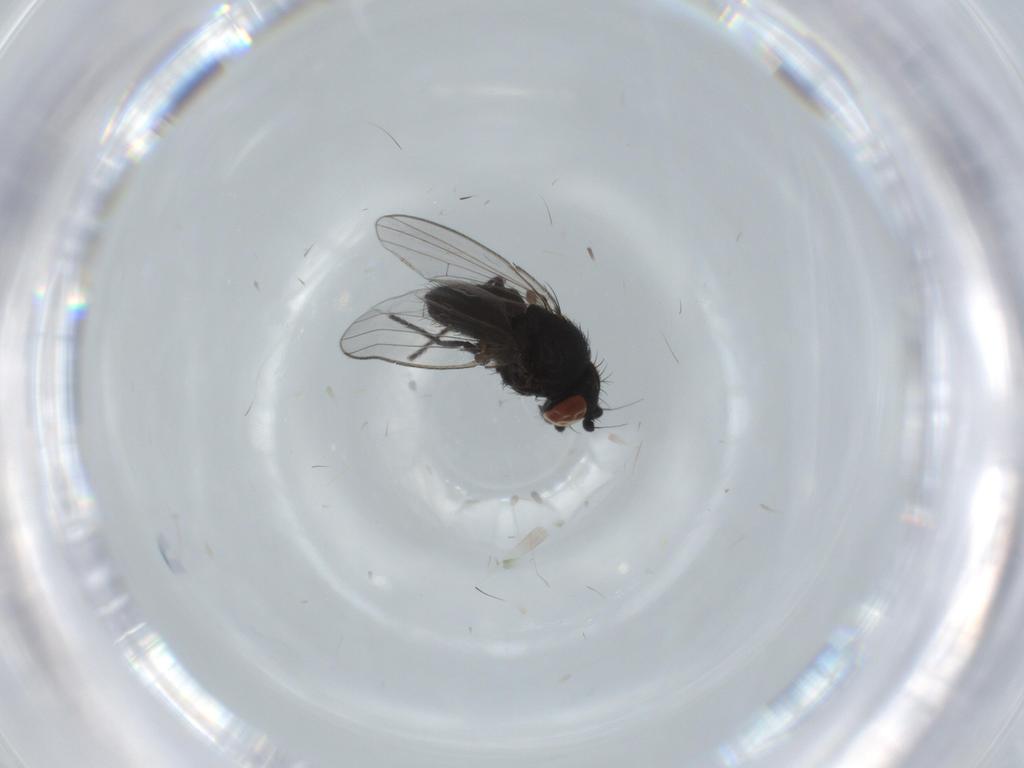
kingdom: Animalia
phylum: Arthropoda
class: Insecta
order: Diptera
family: Milichiidae
